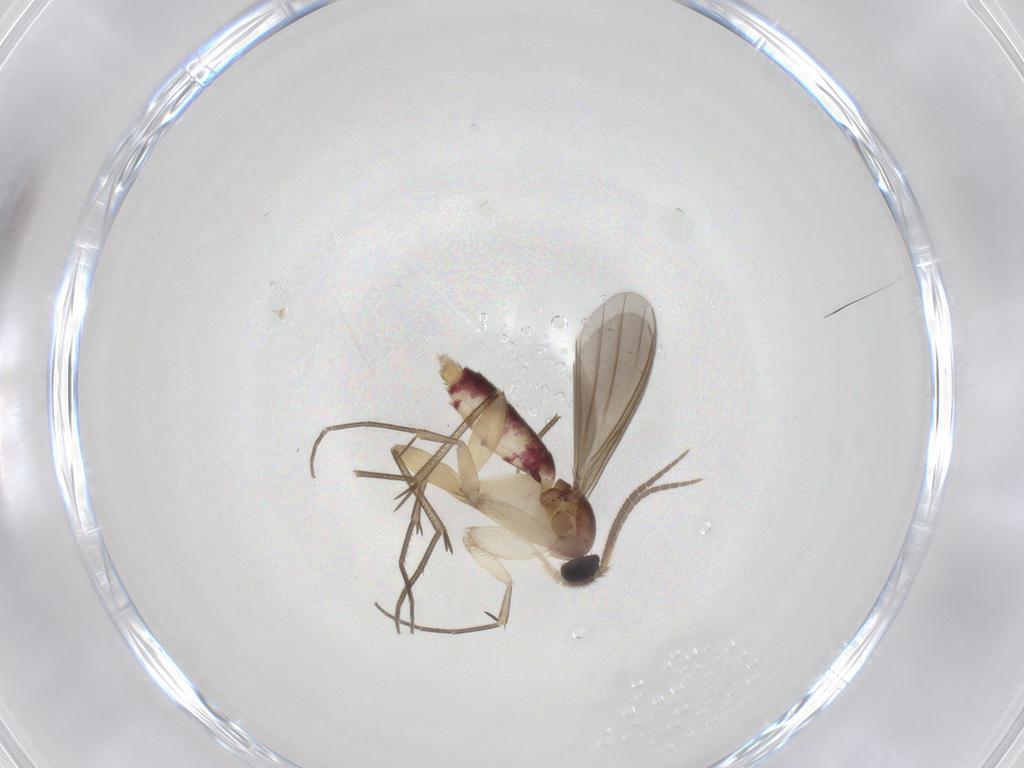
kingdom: Animalia
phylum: Arthropoda
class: Insecta
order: Diptera
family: Mycetophilidae
